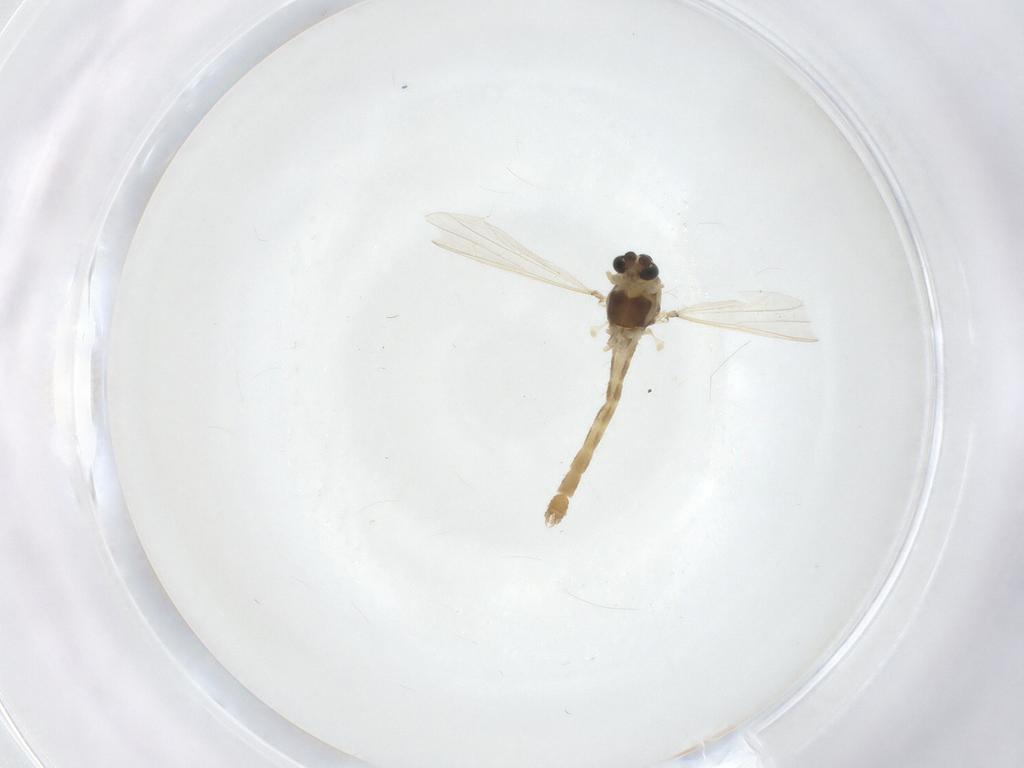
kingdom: Animalia
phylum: Arthropoda
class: Insecta
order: Diptera
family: Chironomidae
